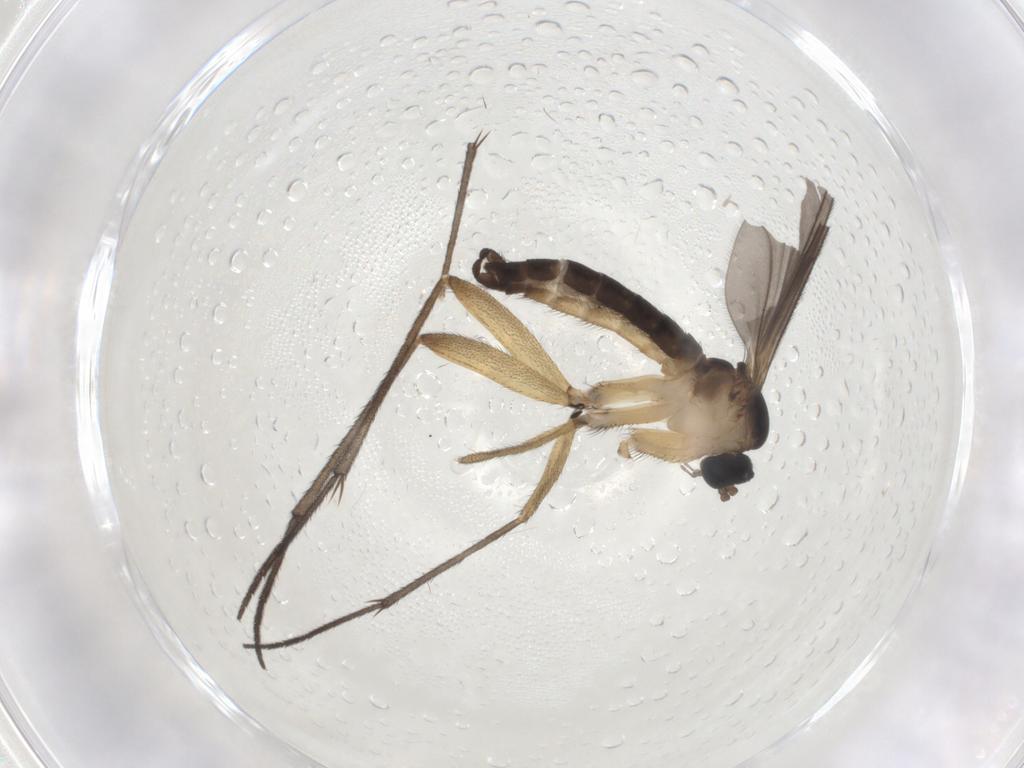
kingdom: Animalia
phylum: Arthropoda
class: Insecta
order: Diptera
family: Sciaridae
